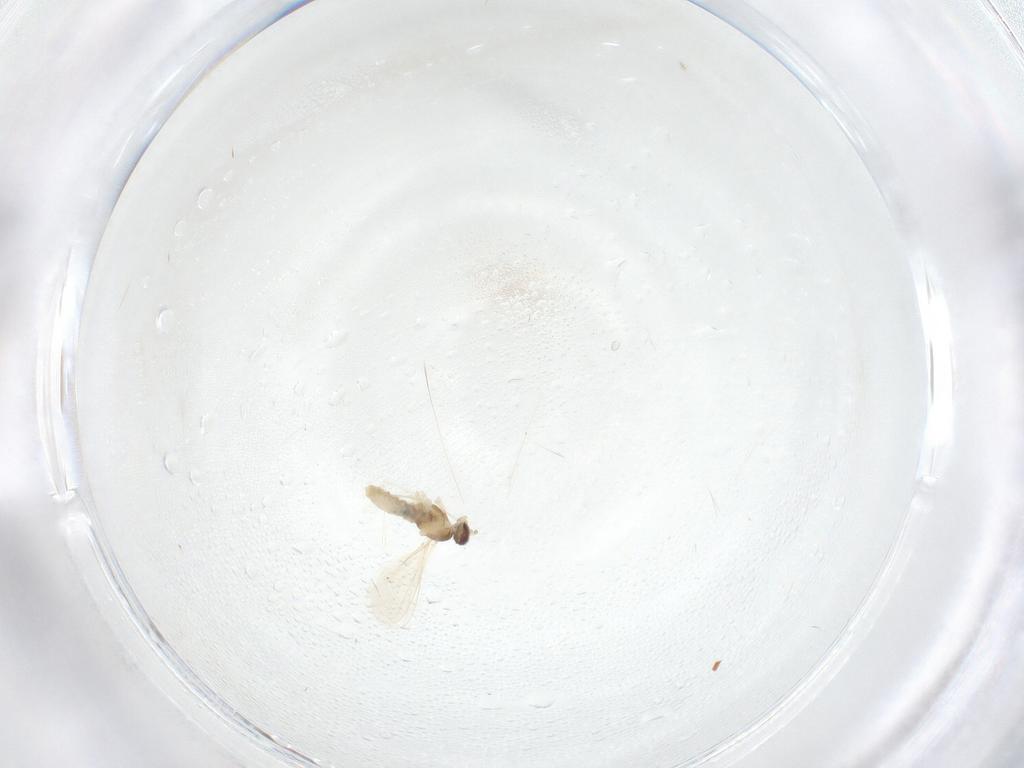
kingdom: Animalia
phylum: Arthropoda
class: Insecta
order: Diptera
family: Cecidomyiidae
